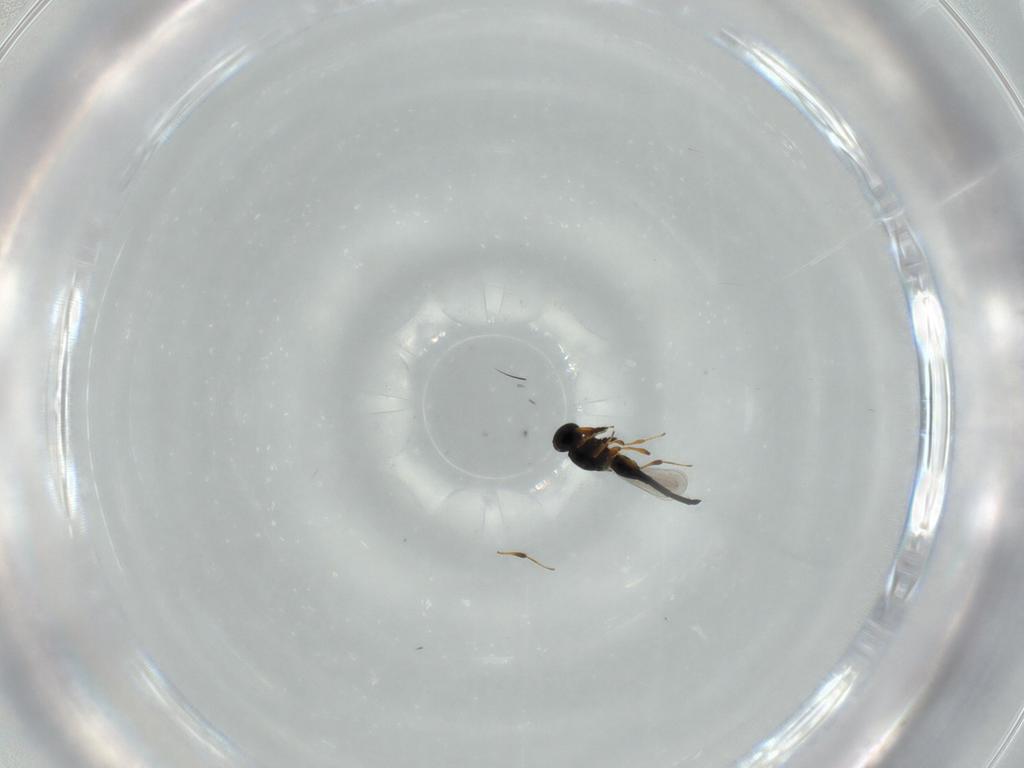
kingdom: Animalia
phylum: Arthropoda
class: Insecta
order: Hymenoptera
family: Platygastridae
